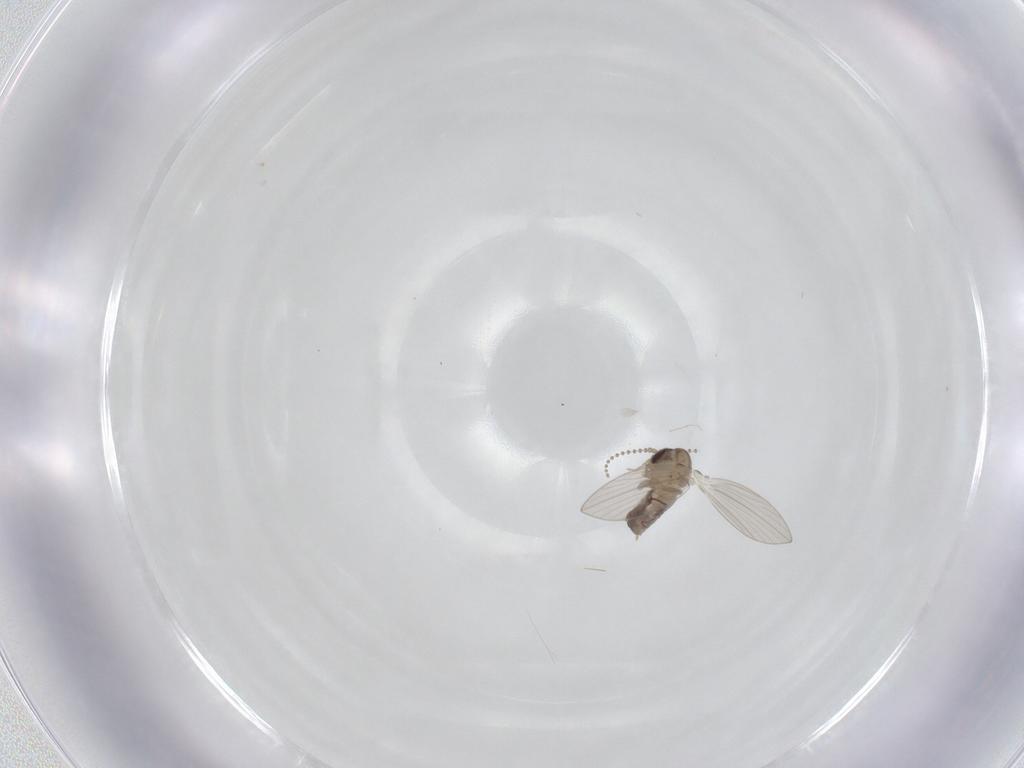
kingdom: Animalia
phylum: Arthropoda
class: Insecta
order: Diptera
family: Psychodidae
